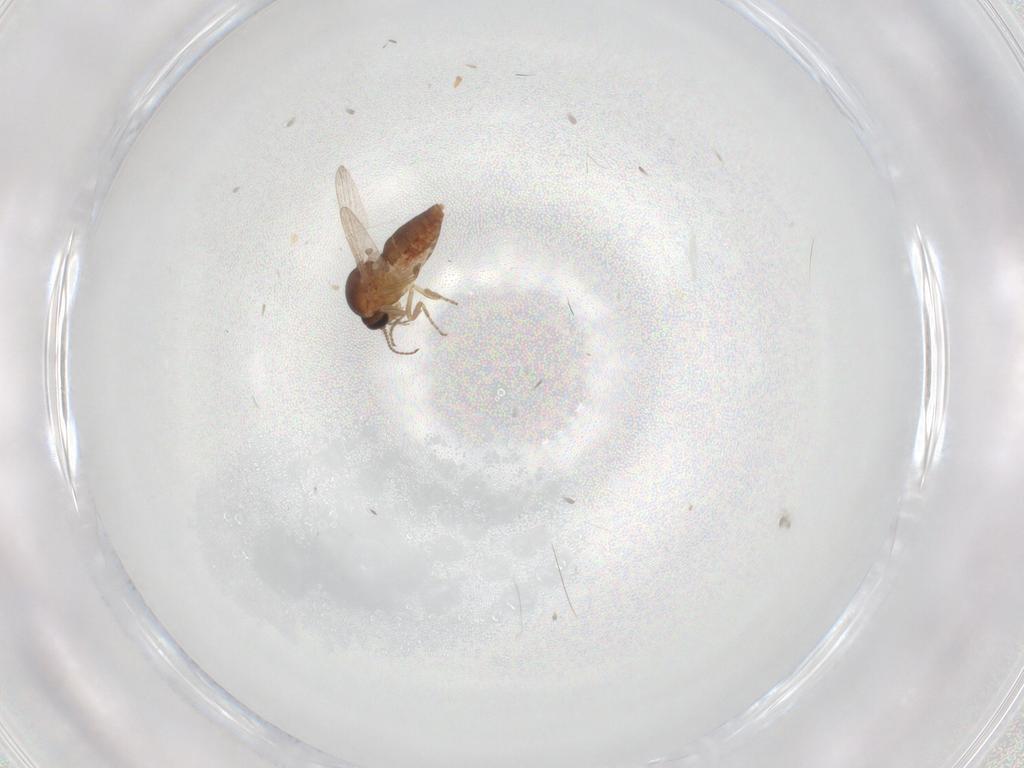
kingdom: Animalia
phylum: Arthropoda
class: Insecta
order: Diptera
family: Ceratopogonidae
